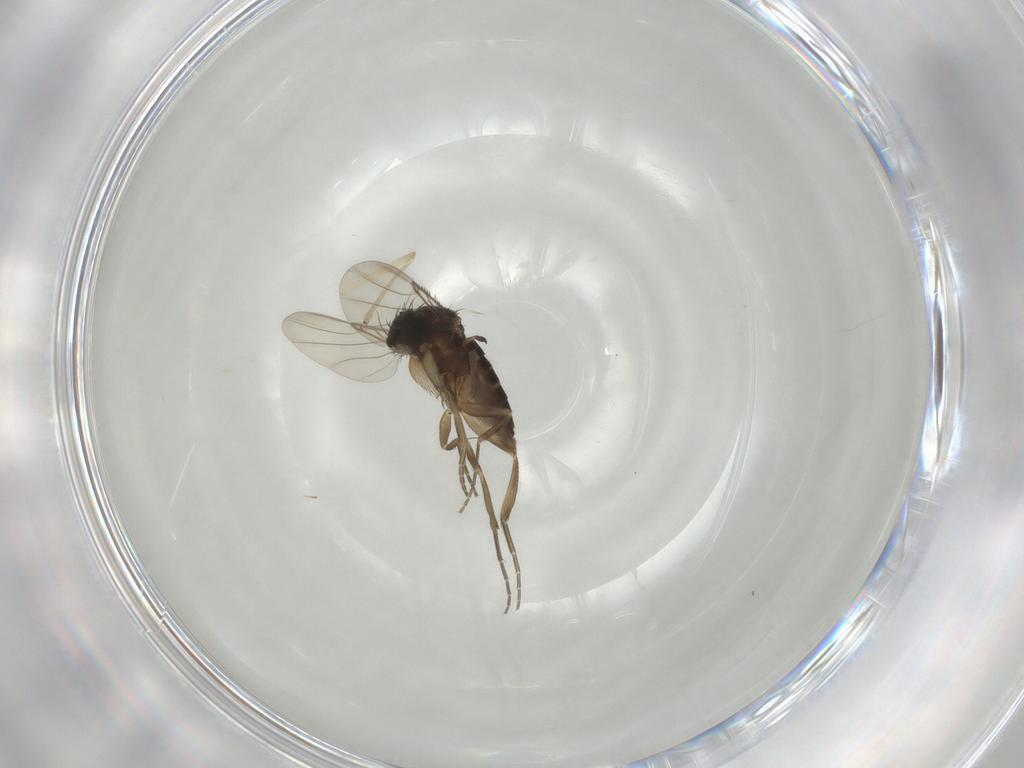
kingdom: Animalia
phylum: Arthropoda
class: Insecta
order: Diptera
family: Phoridae
